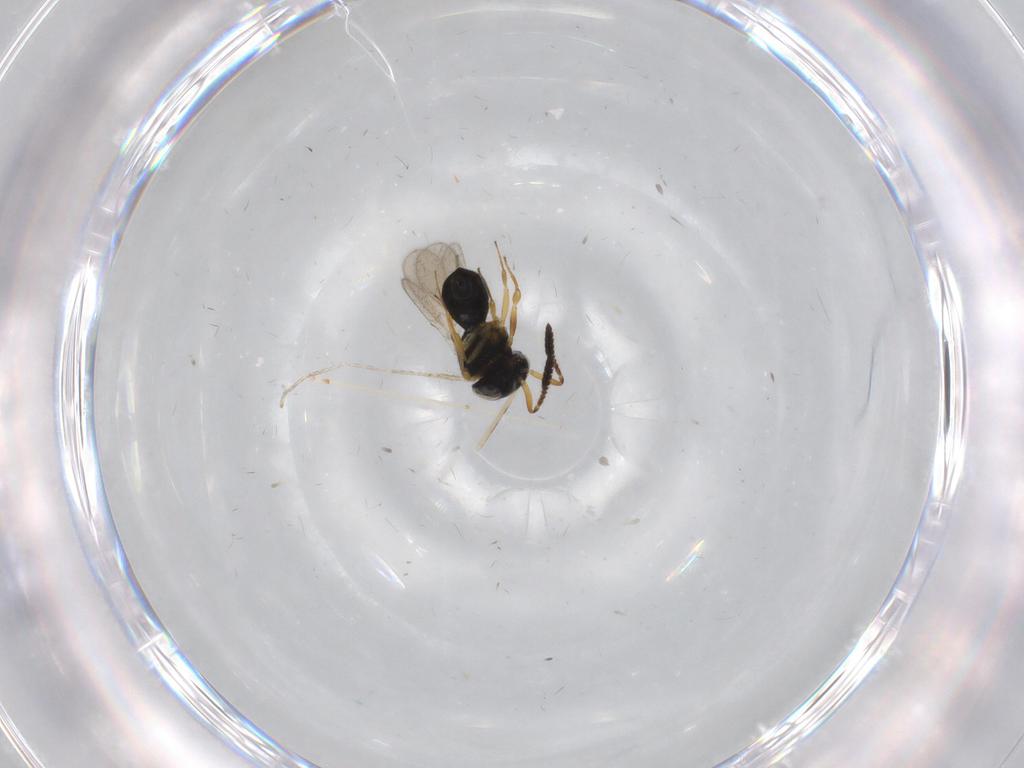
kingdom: Animalia
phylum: Arthropoda
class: Insecta
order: Hymenoptera
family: Scelionidae
